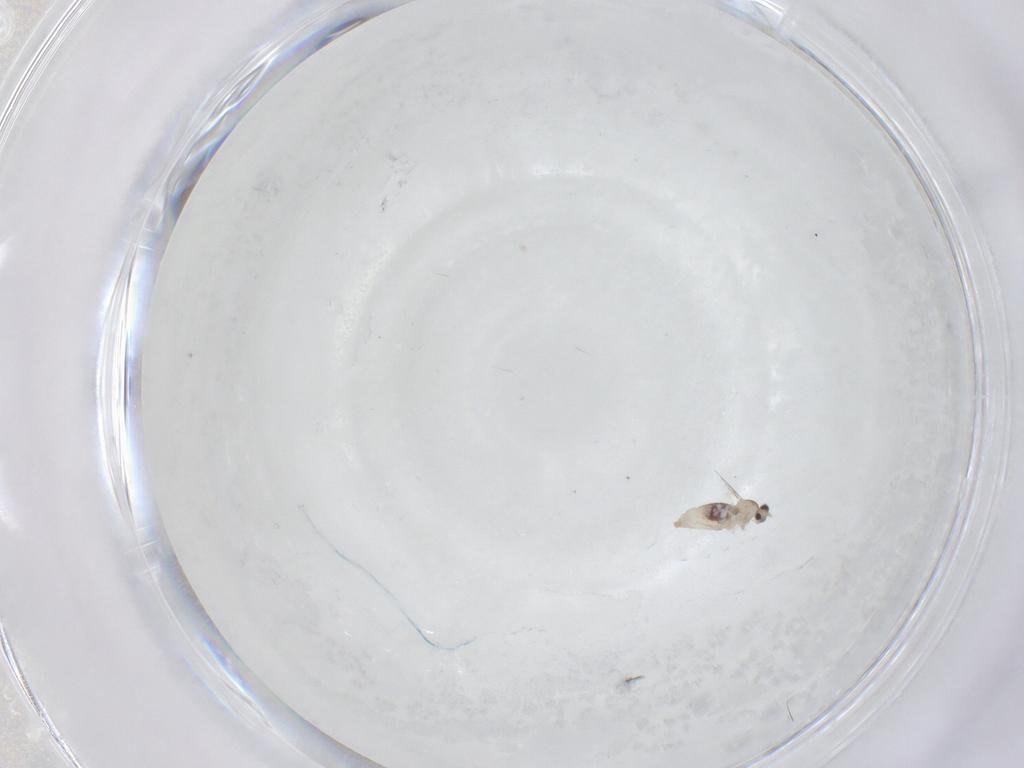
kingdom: Animalia
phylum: Arthropoda
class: Insecta
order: Diptera
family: Cecidomyiidae
